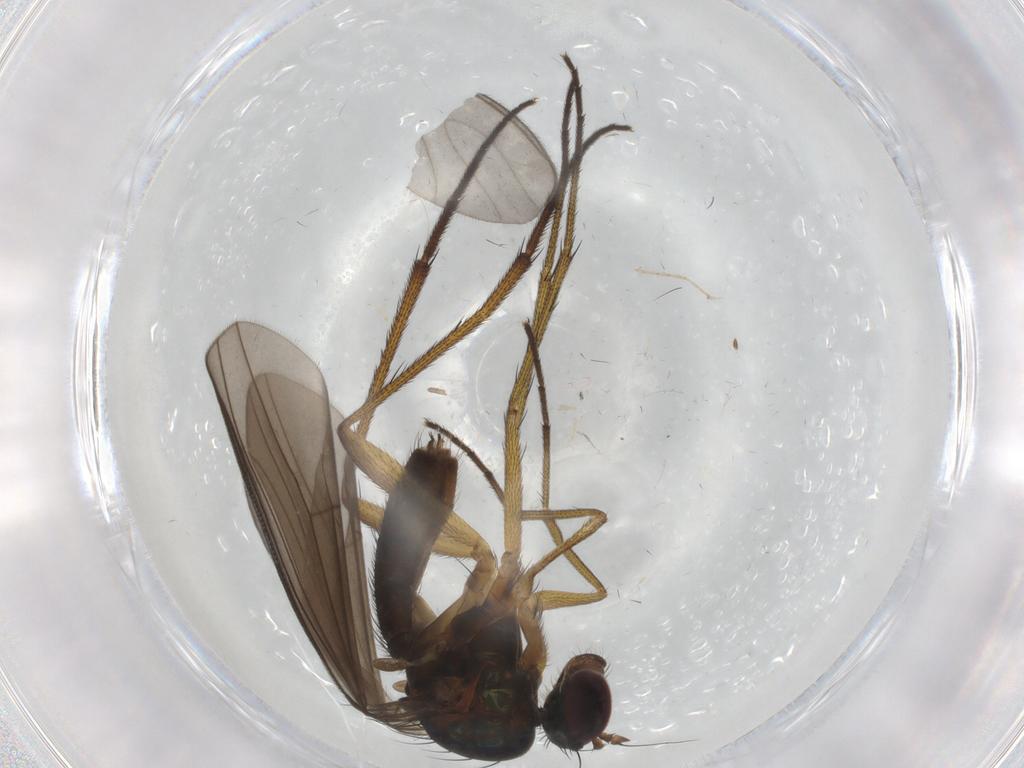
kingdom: Animalia
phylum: Arthropoda
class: Insecta
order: Diptera
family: Dolichopodidae
